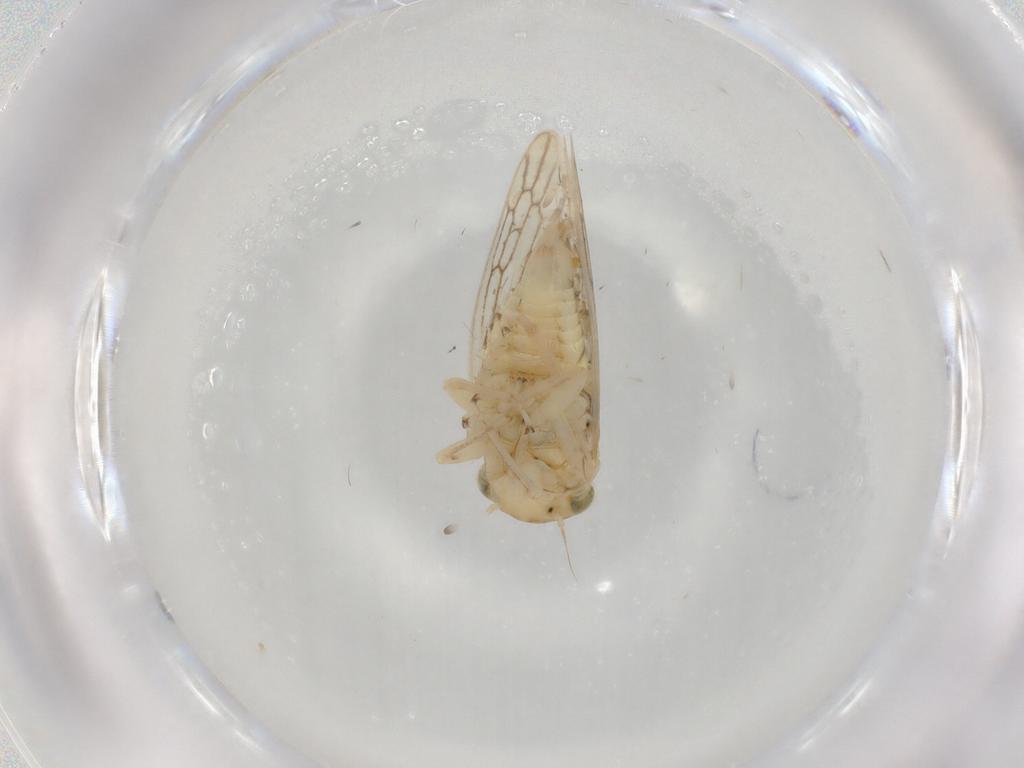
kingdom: Animalia
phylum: Arthropoda
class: Insecta
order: Hemiptera
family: Cicadellidae
